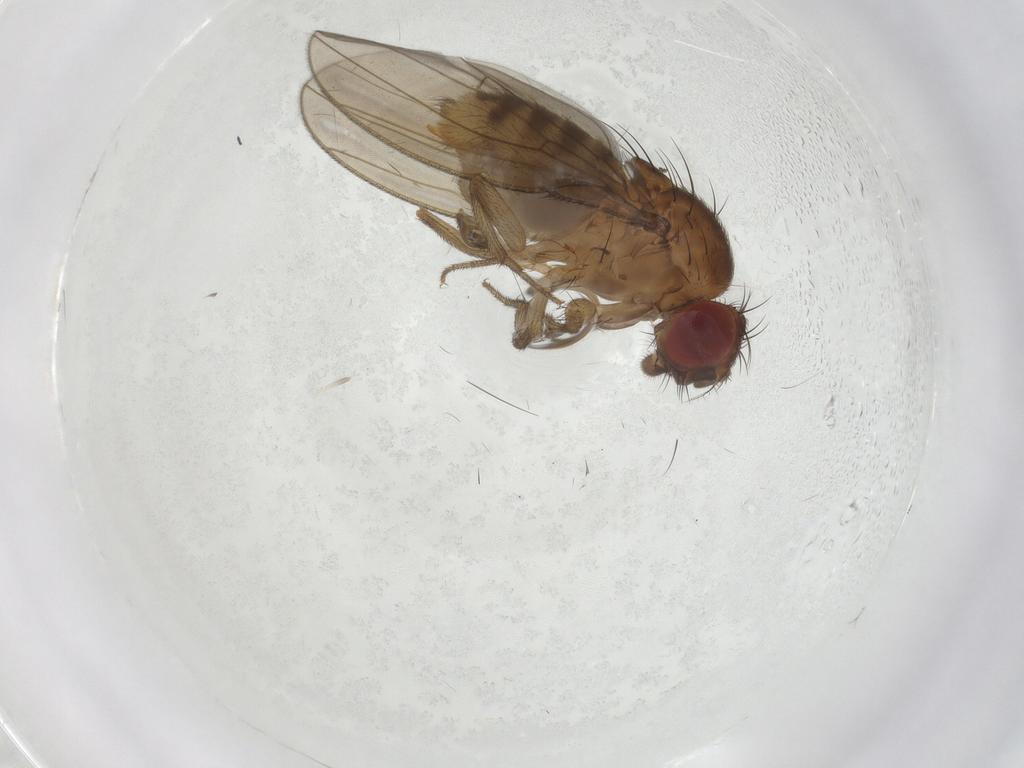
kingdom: Animalia
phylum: Arthropoda
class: Insecta
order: Diptera
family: Drosophilidae
